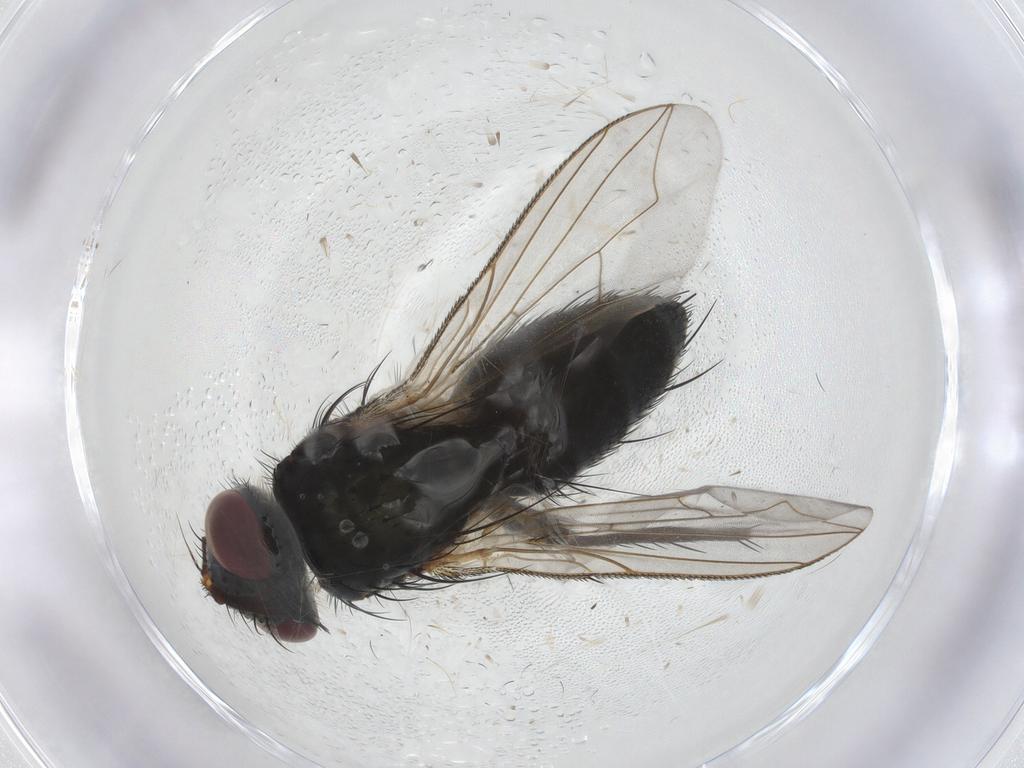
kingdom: Animalia
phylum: Arthropoda
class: Insecta
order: Diptera
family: Tachinidae
